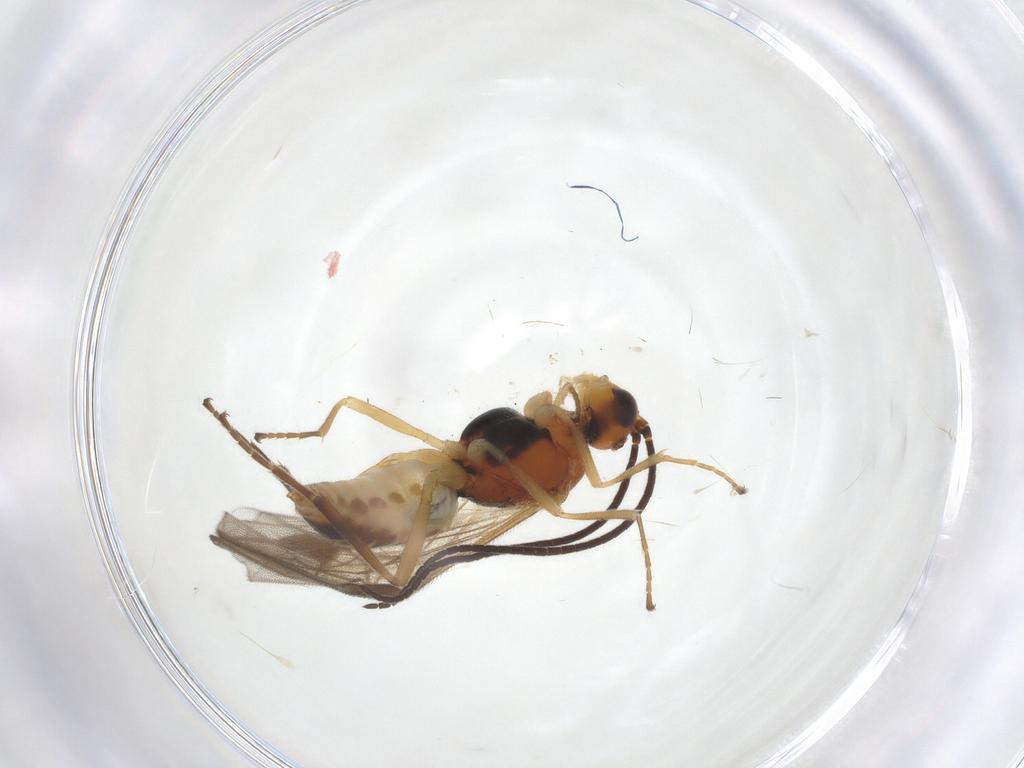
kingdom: Animalia
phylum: Arthropoda
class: Insecta
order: Hymenoptera
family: Braconidae
